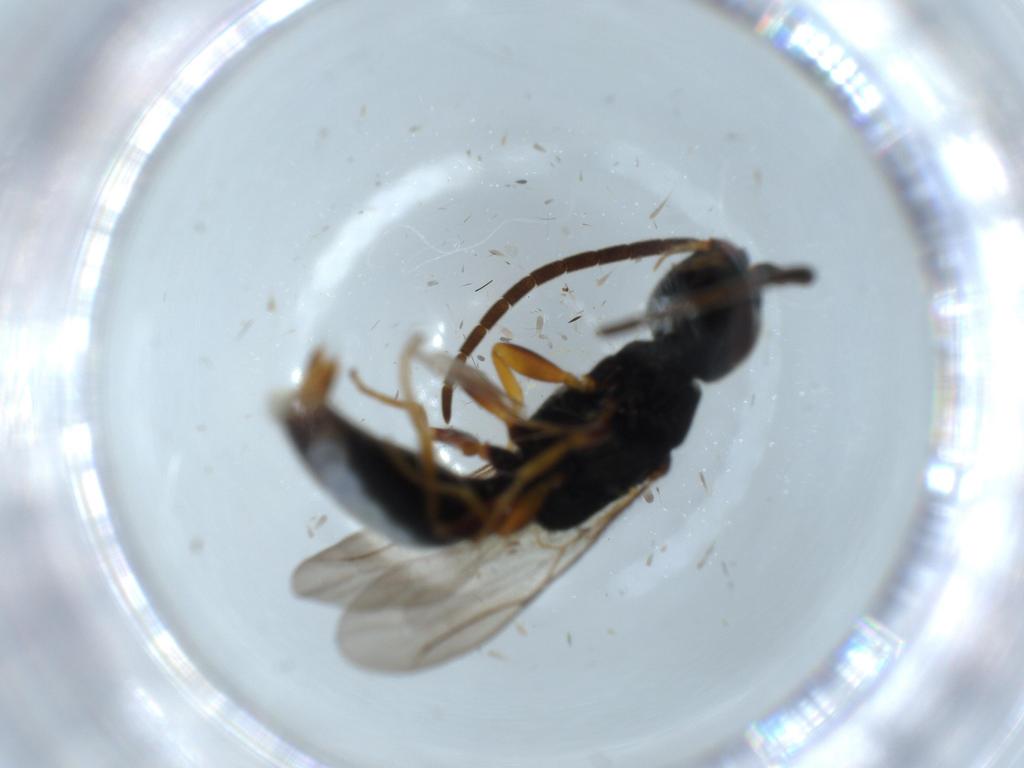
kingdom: Animalia
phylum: Arthropoda
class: Insecta
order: Hymenoptera
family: Bethylidae
